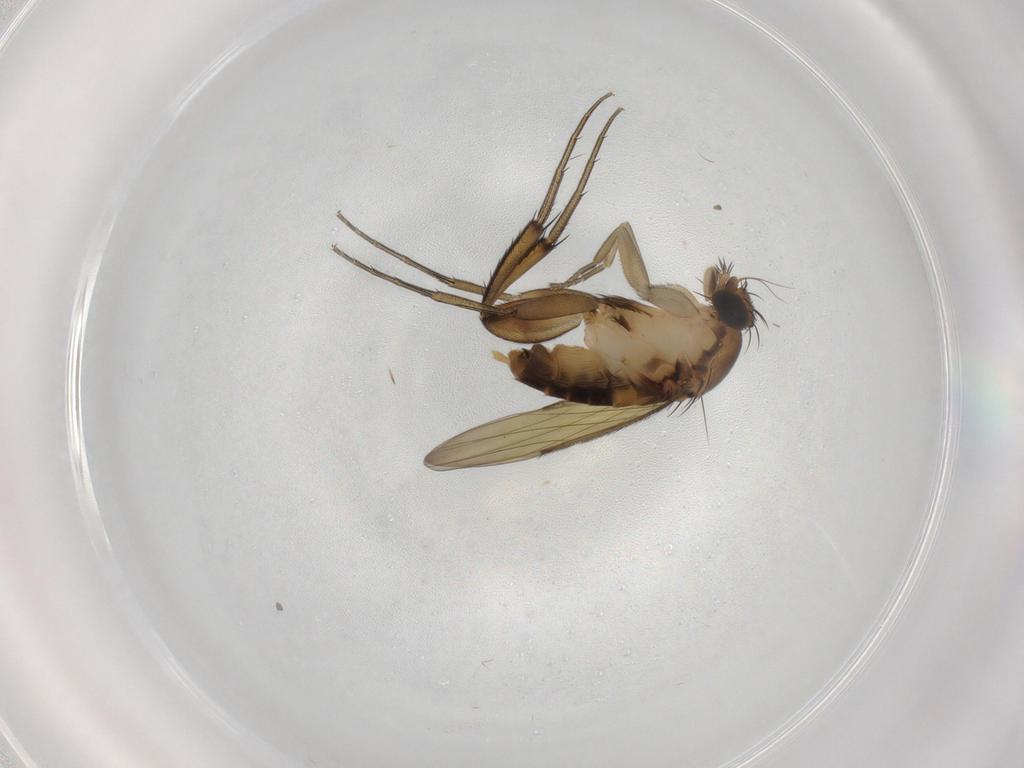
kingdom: Animalia
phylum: Arthropoda
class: Insecta
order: Diptera
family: Phoridae
